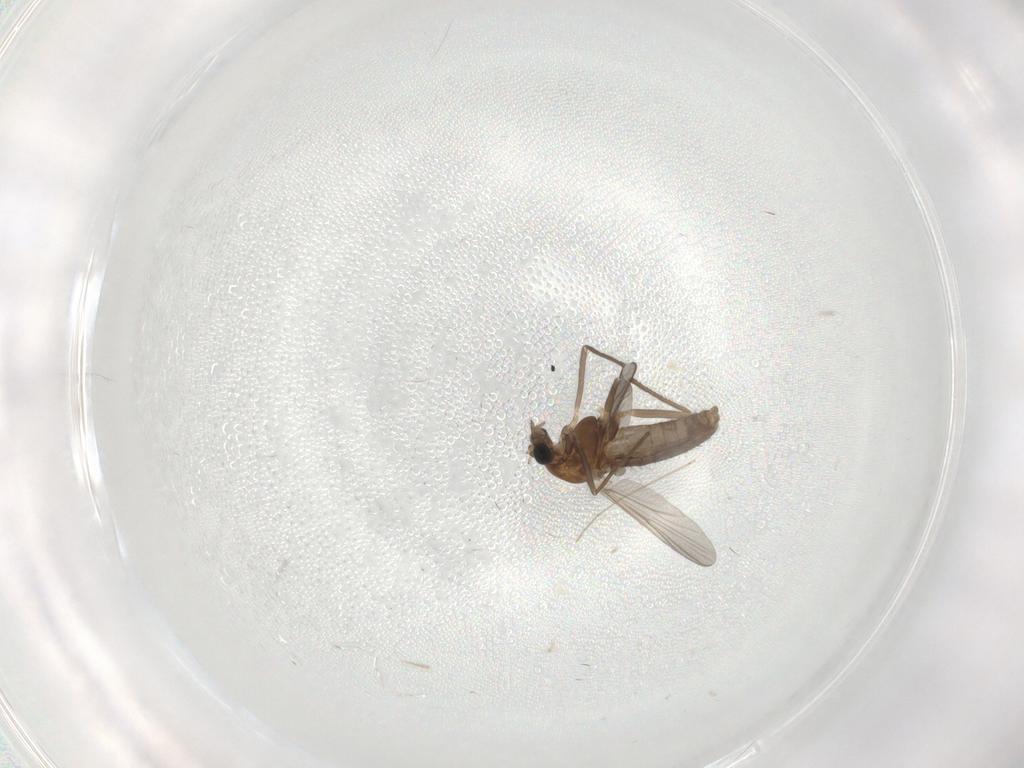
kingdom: Animalia
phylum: Arthropoda
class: Insecta
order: Diptera
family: Chironomidae
